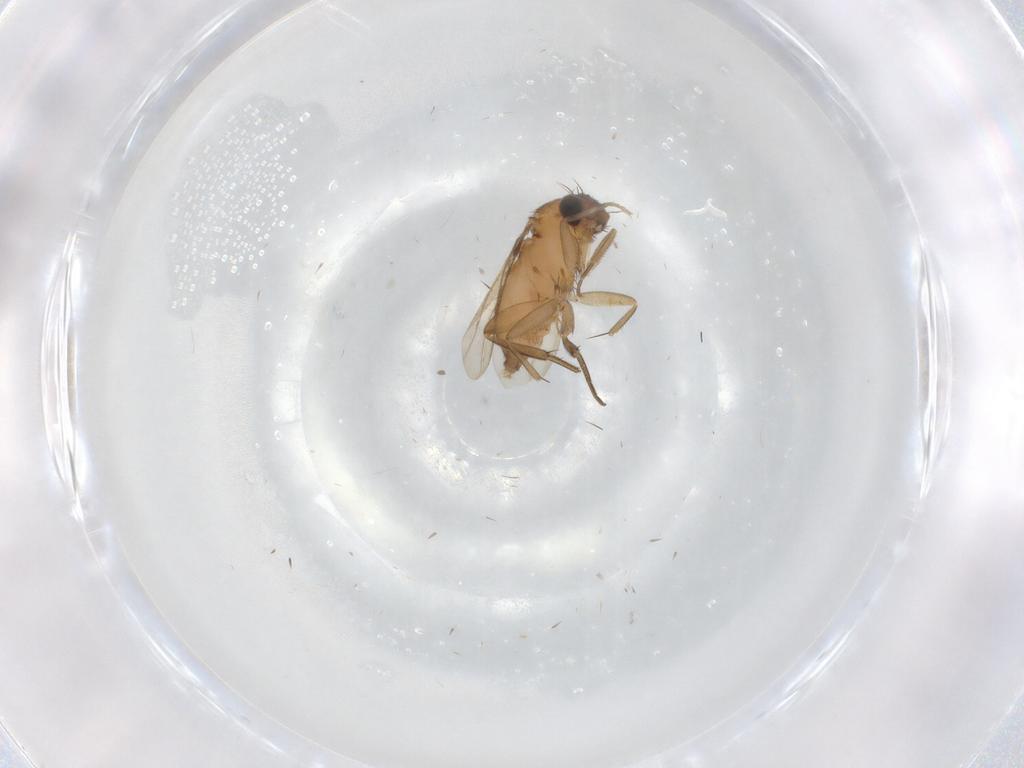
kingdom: Animalia
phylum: Arthropoda
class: Insecta
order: Diptera
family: Phoridae
